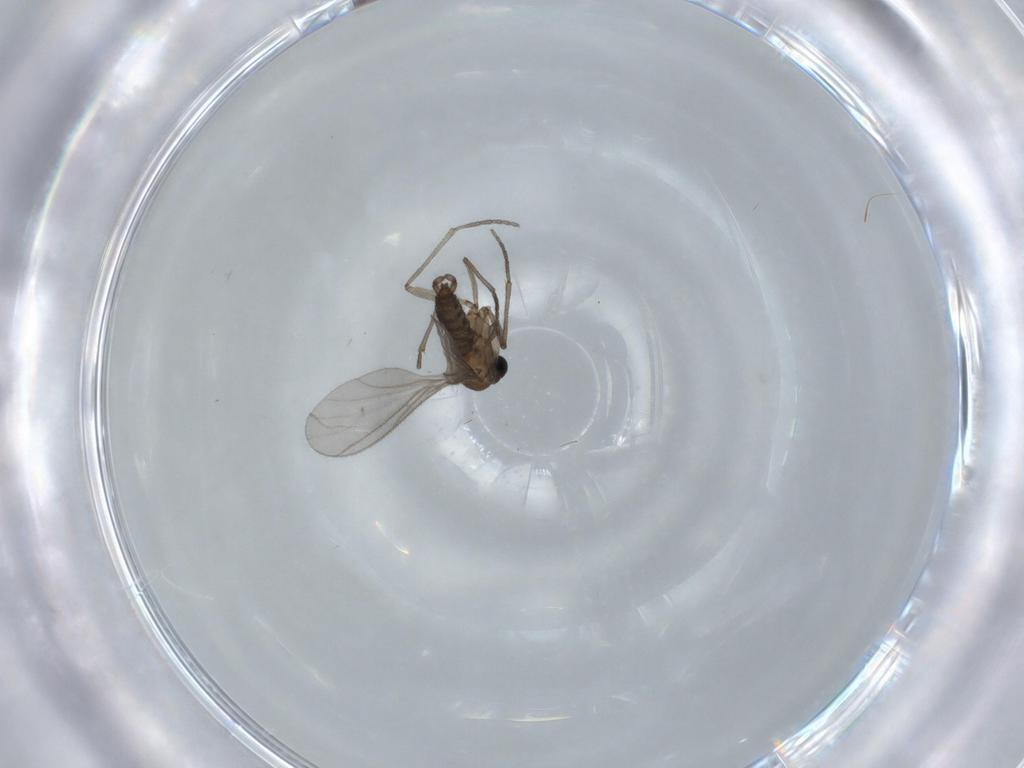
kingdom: Animalia
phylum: Arthropoda
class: Insecta
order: Diptera
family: Sciaridae
